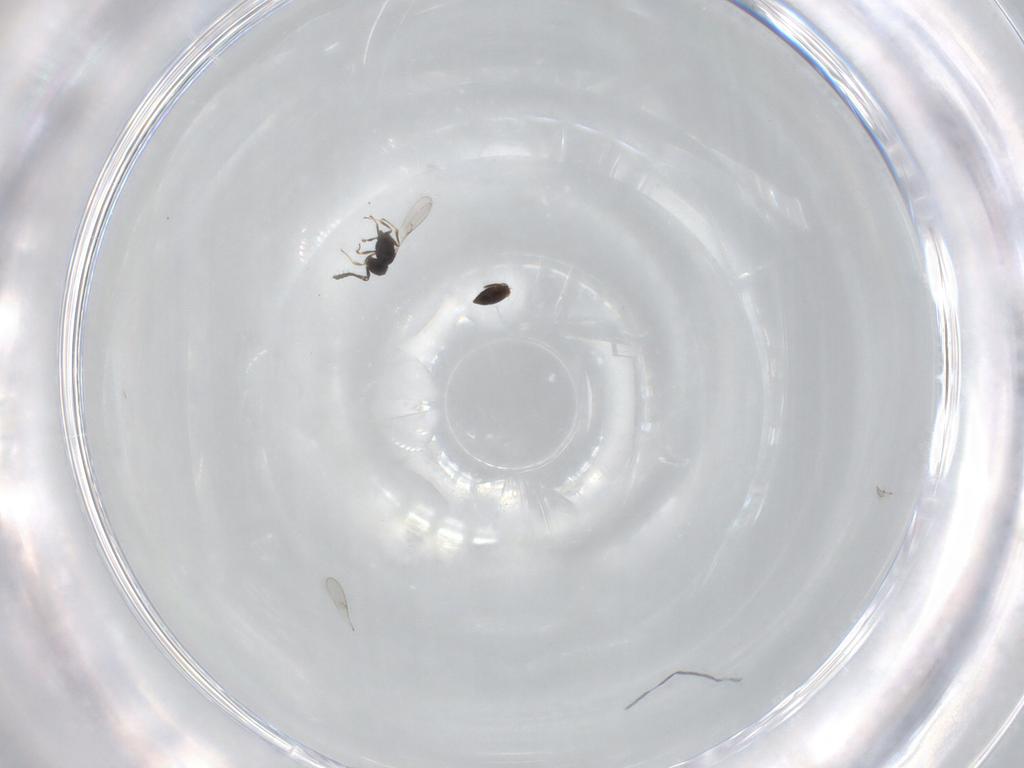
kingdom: Animalia
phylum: Arthropoda
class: Insecta
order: Hymenoptera
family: Scelionidae
